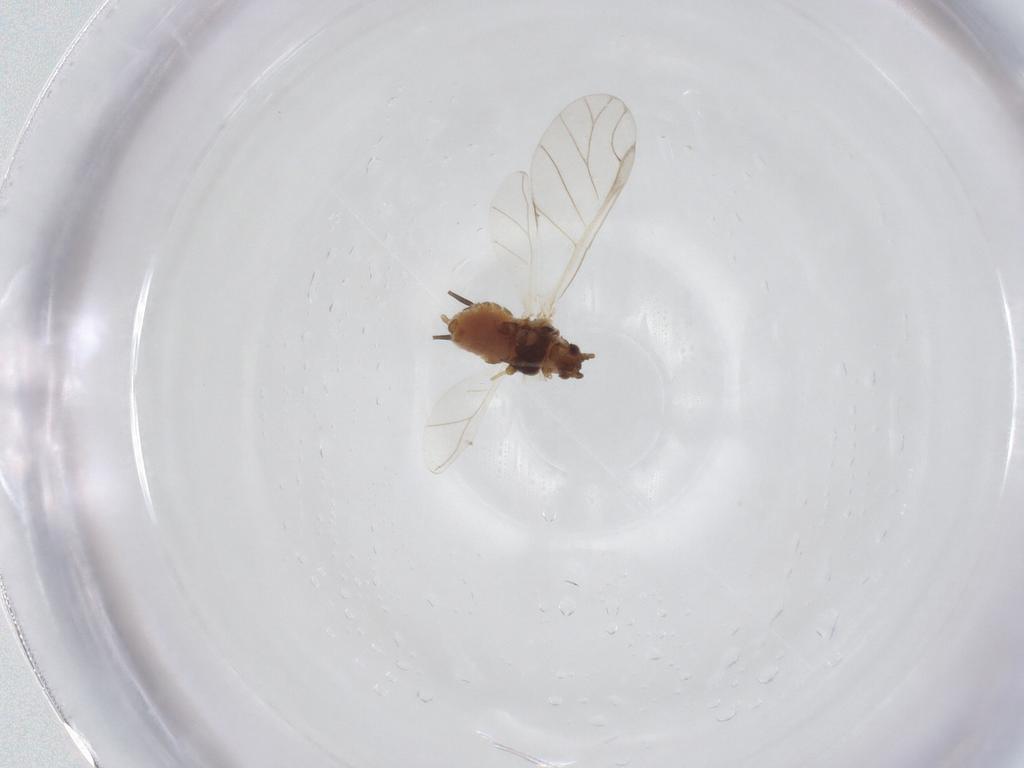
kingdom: Animalia
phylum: Arthropoda
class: Insecta
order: Hemiptera
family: Aphididae
